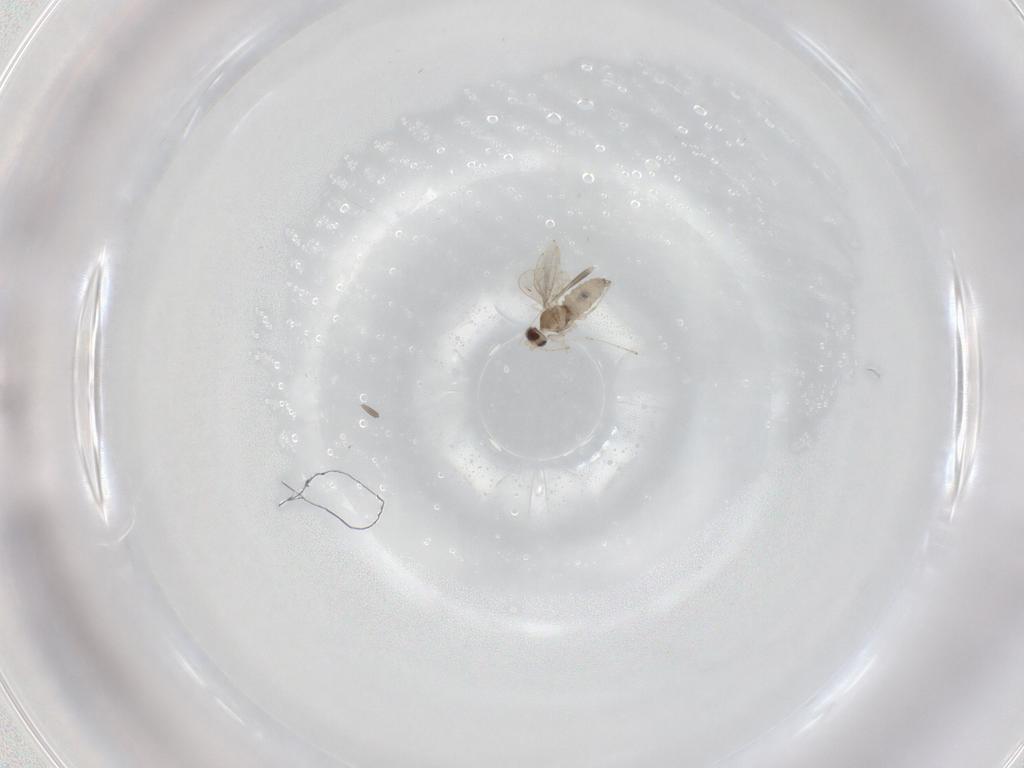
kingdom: Animalia
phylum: Arthropoda
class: Insecta
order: Diptera
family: Cecidomyiidae
